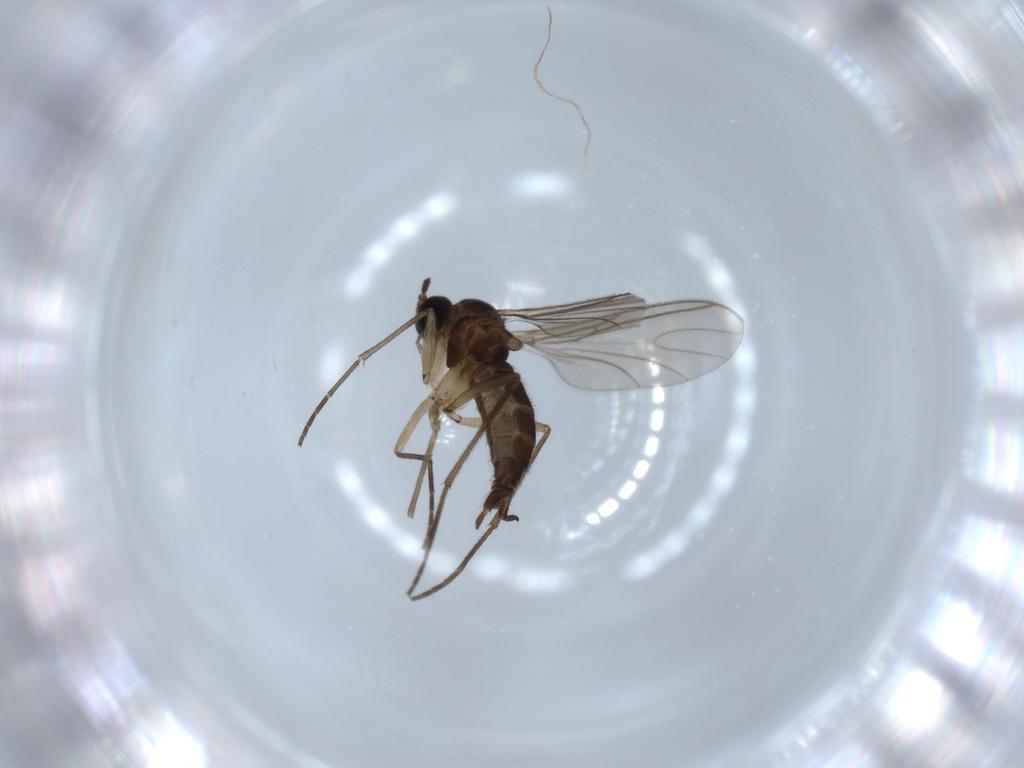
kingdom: Animalia
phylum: Arthropoda
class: Insecta
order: Diptera
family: Sciaridae
